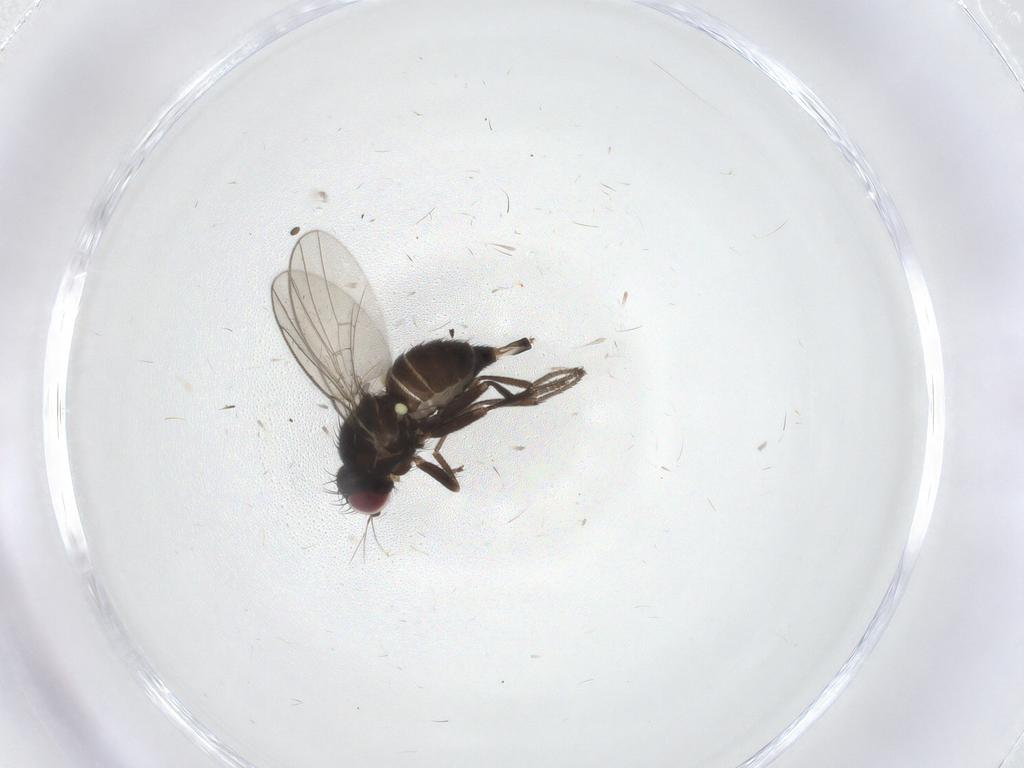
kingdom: Animalia
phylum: Arthropoda
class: Insecta
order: Diptera
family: Agromyzidae
